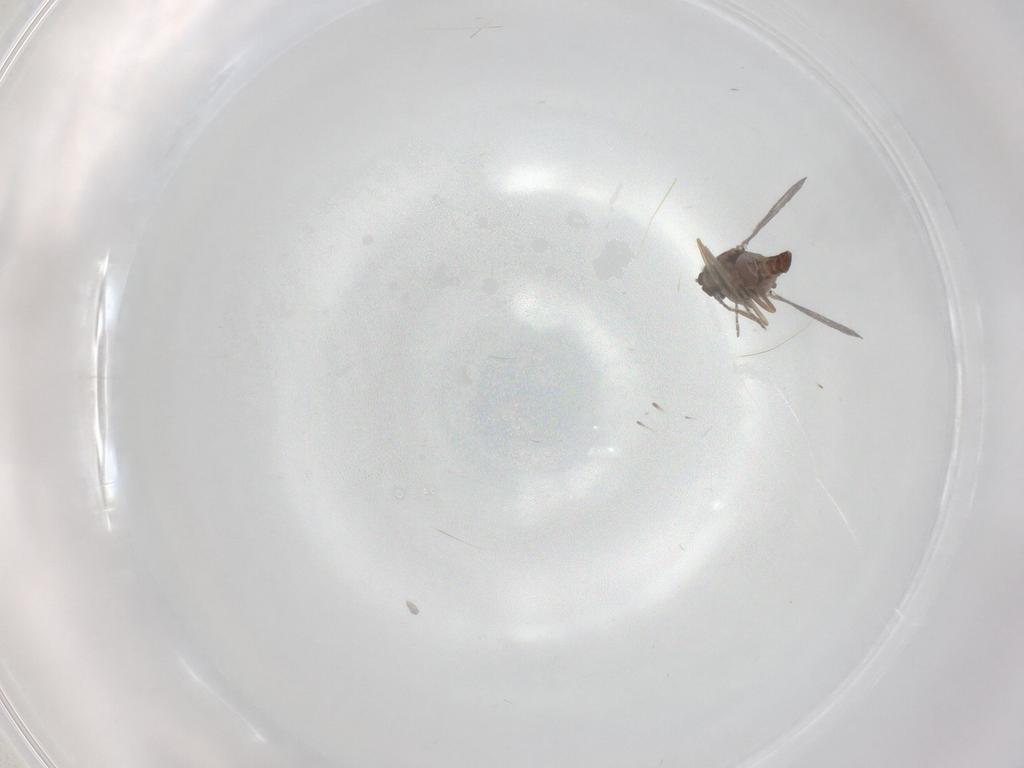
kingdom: Animalia
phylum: Arthropoda
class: Insecta
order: Diptera
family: Ceratopogonidae
